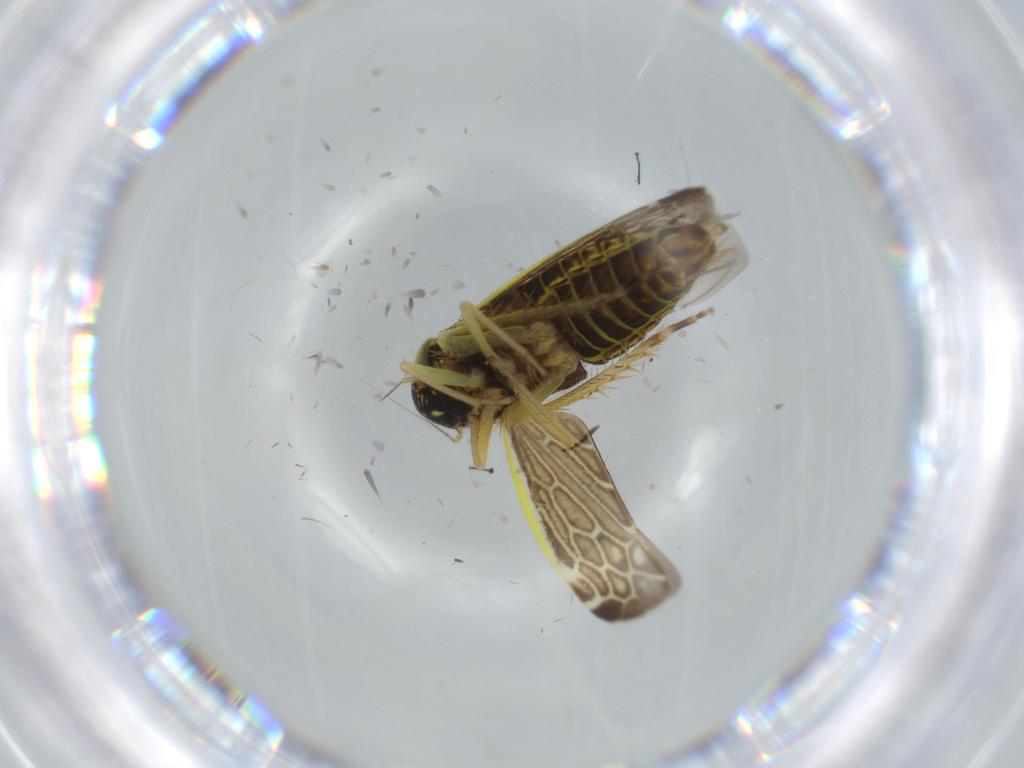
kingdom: Animalia
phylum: Arthropoda
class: Insecta
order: Hemiptera
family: Cicadellidae
